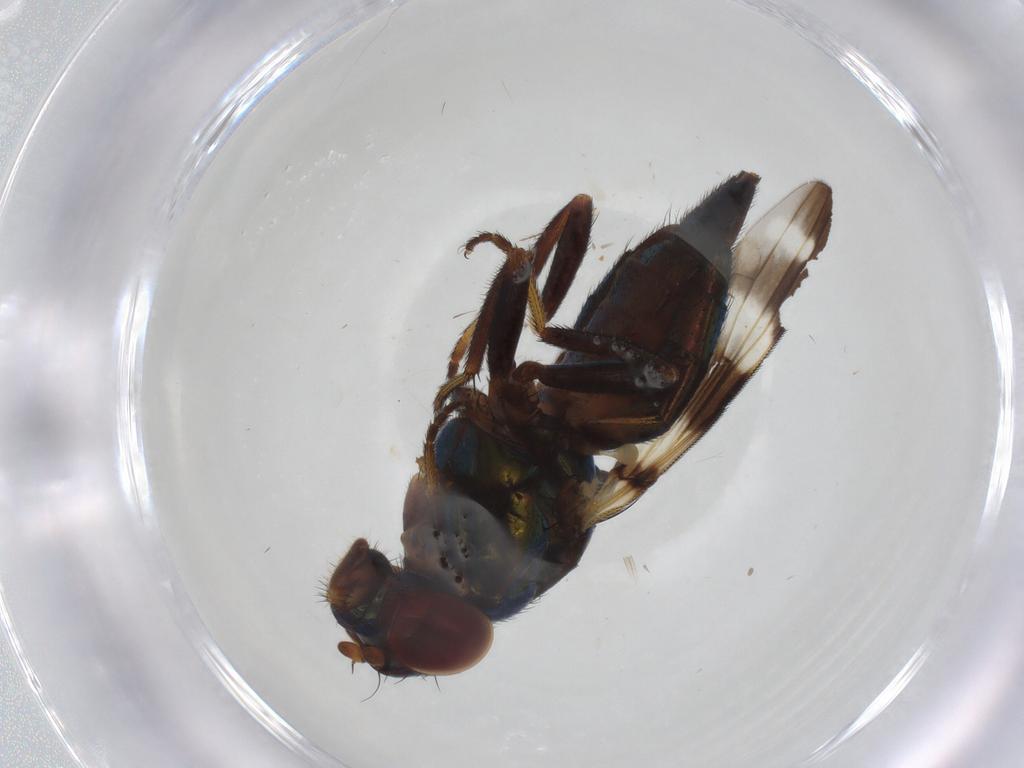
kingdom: Animalia
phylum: Arthropoda
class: Insecta
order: Diptera
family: Ulidiidae
